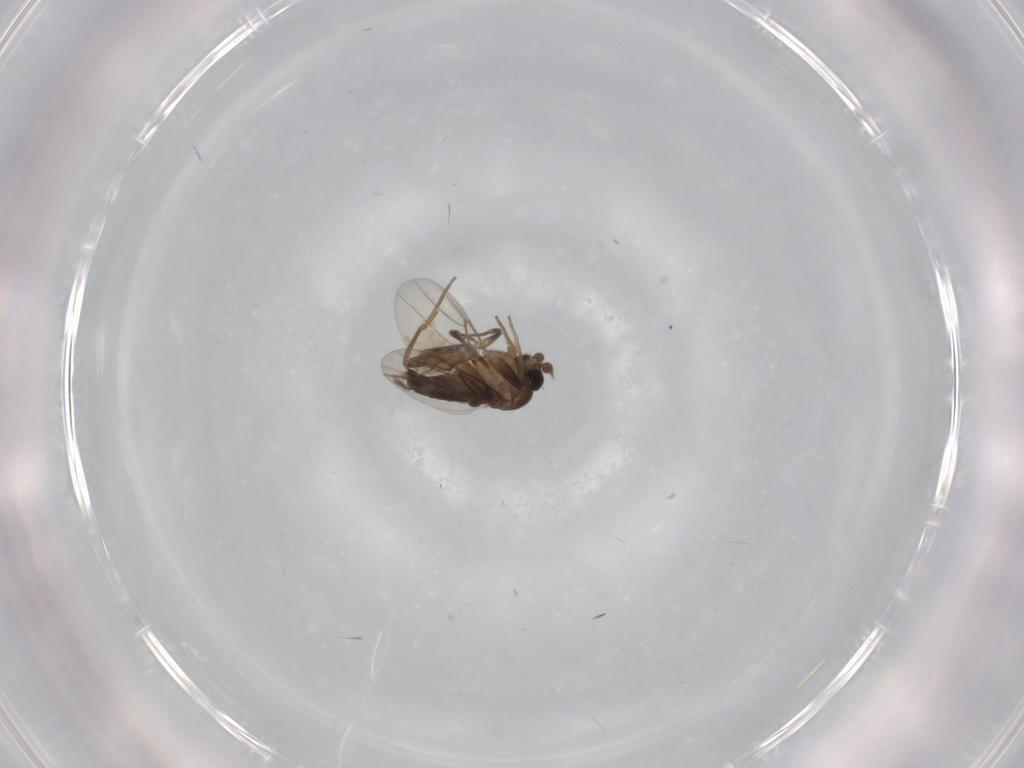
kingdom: Animalia
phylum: Arthropoda
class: Insecta
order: Diptera
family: Phoridae
